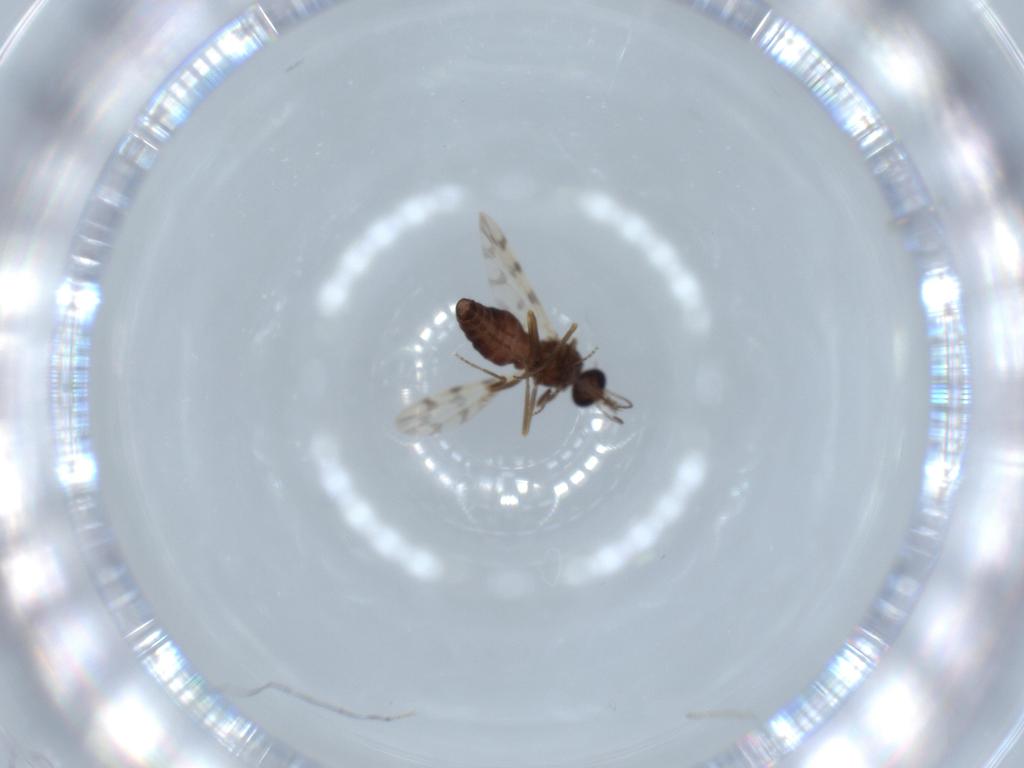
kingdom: Animalia
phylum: Arthropoda
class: Insecta
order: Diptera
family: Ceratopogonidae
